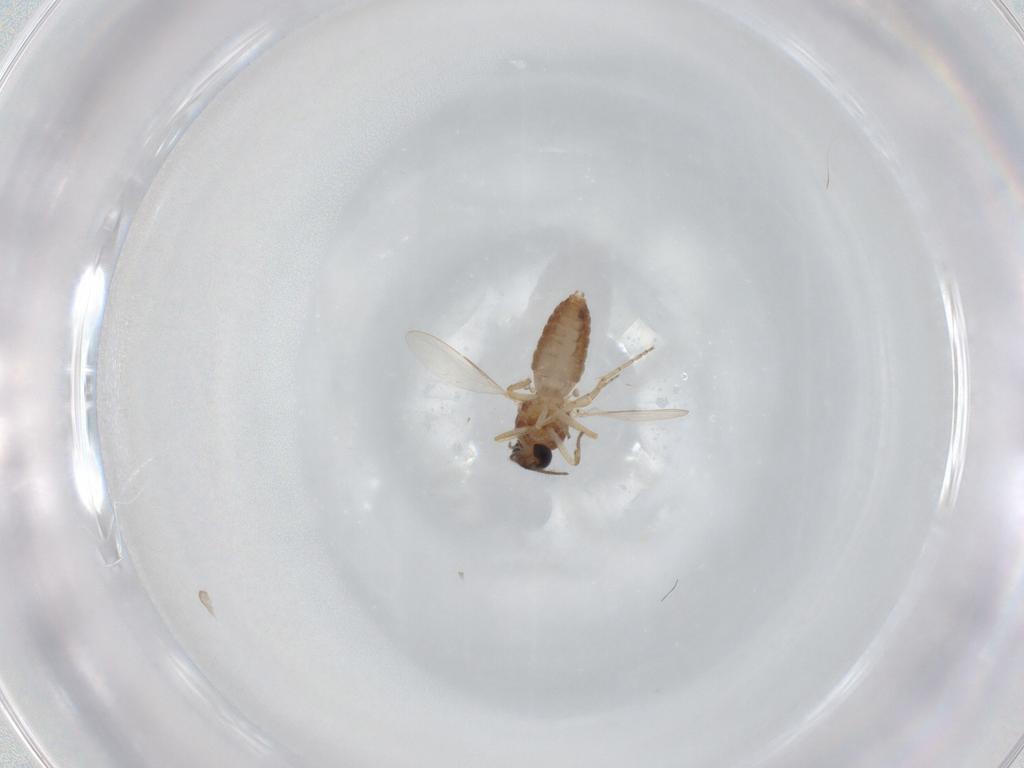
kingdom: Animalia
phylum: Arthropoda
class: Insecta
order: Diptera
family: Ceratopogonidae
